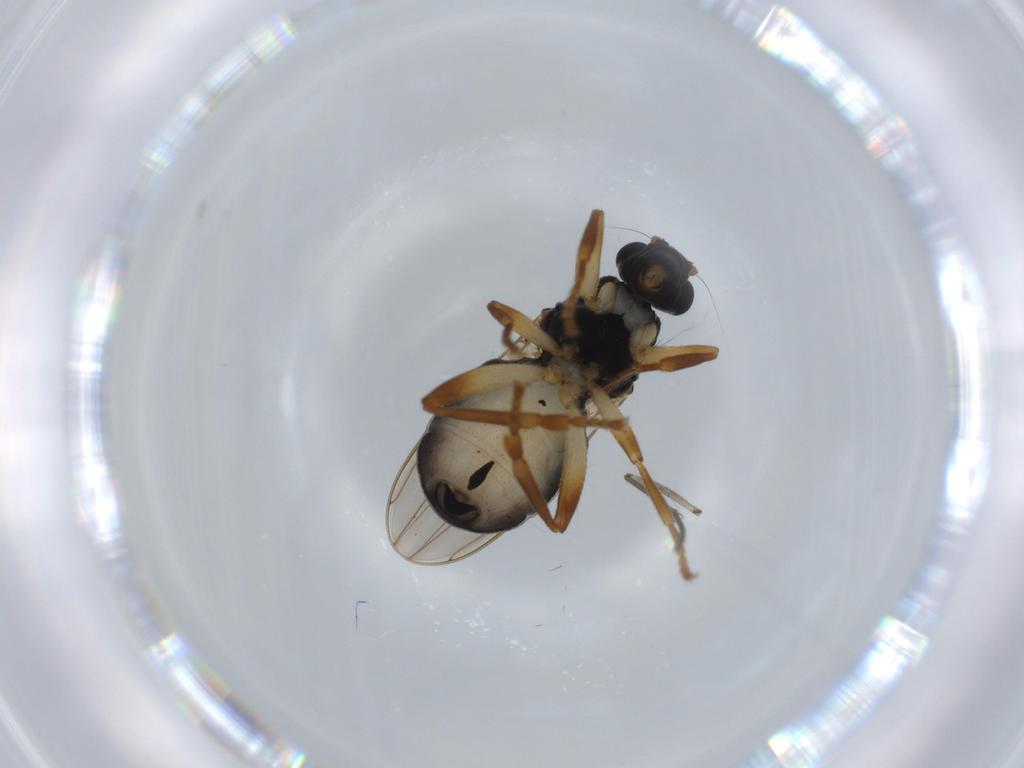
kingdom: Animalia
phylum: Arthropoda
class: Insecta
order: Diptera
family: Sphaeroceridae
